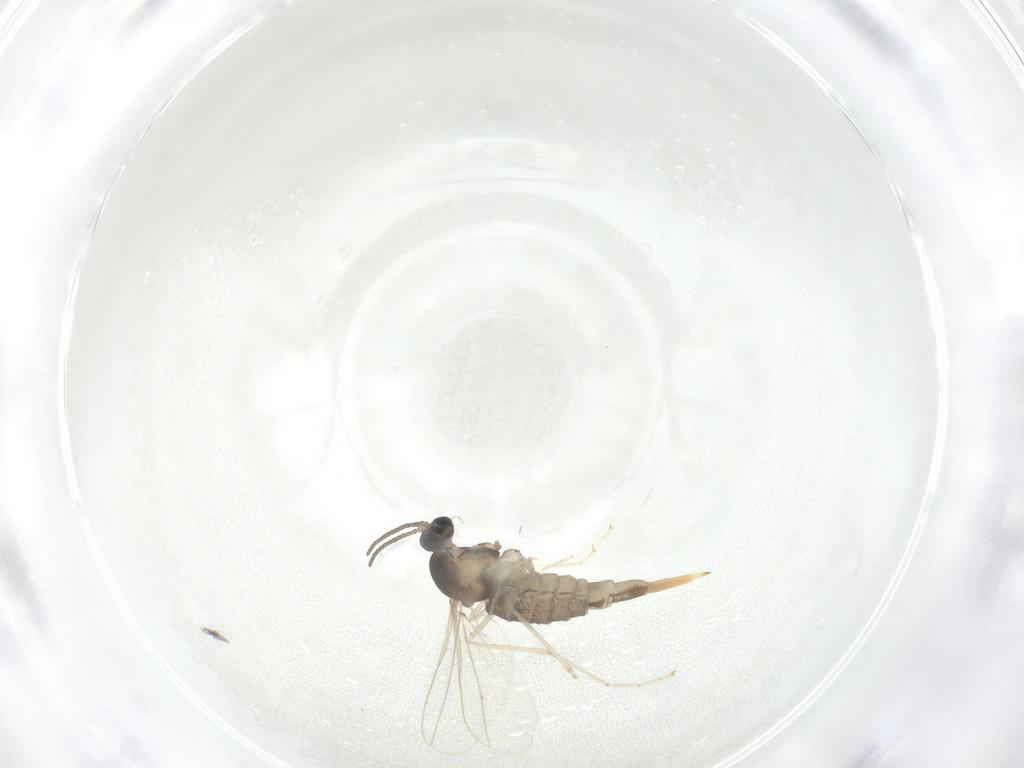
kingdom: Animalia
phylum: Arthropoda
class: Insecta
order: Diptera
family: Cecidomyiidae
